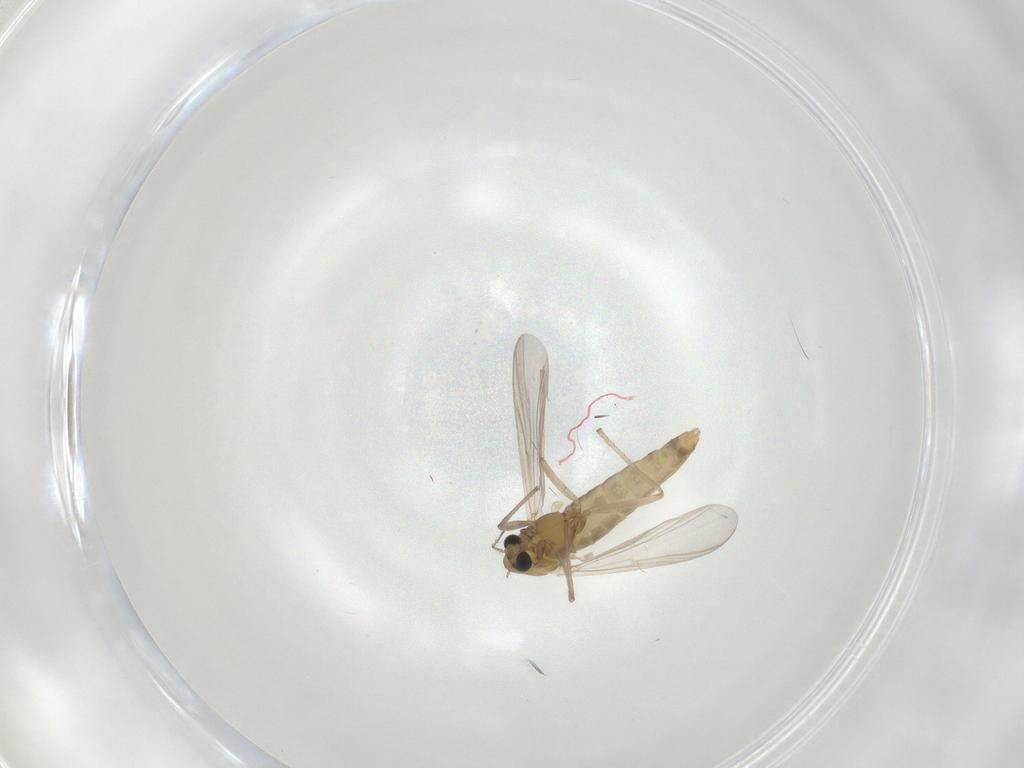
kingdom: Animalia
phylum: Arthropoda
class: Insecta
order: Diptera
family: Chironomidae
